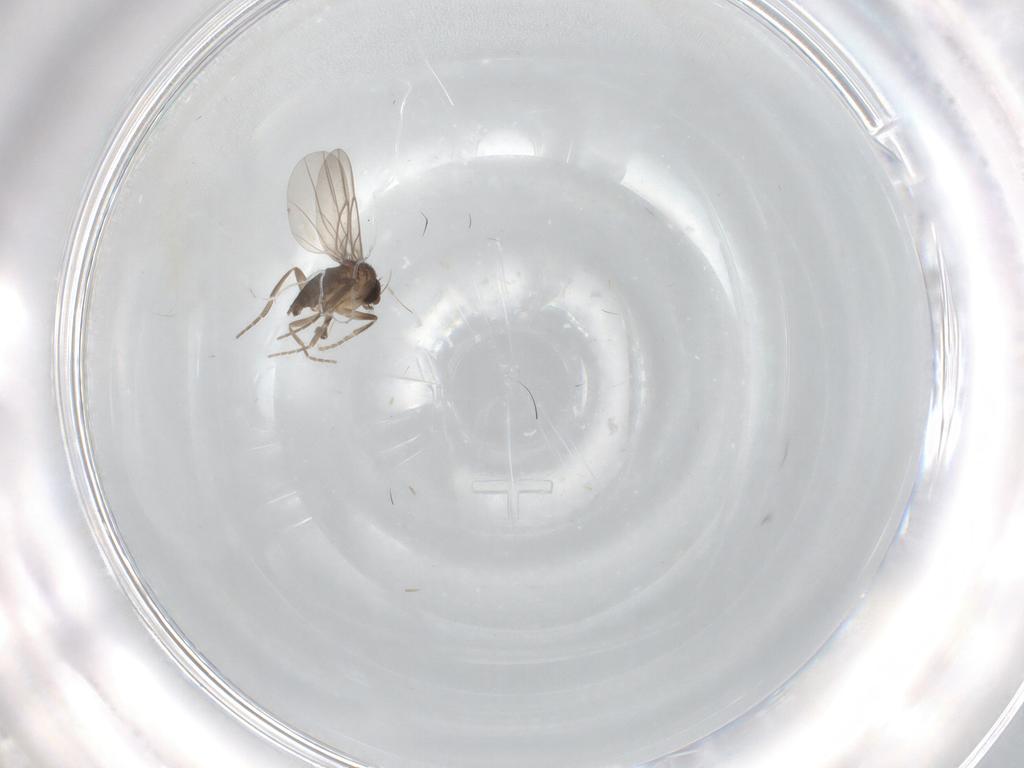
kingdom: Animalia
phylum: Arthropoda
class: Insecta
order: Diptera
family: Phoridae
